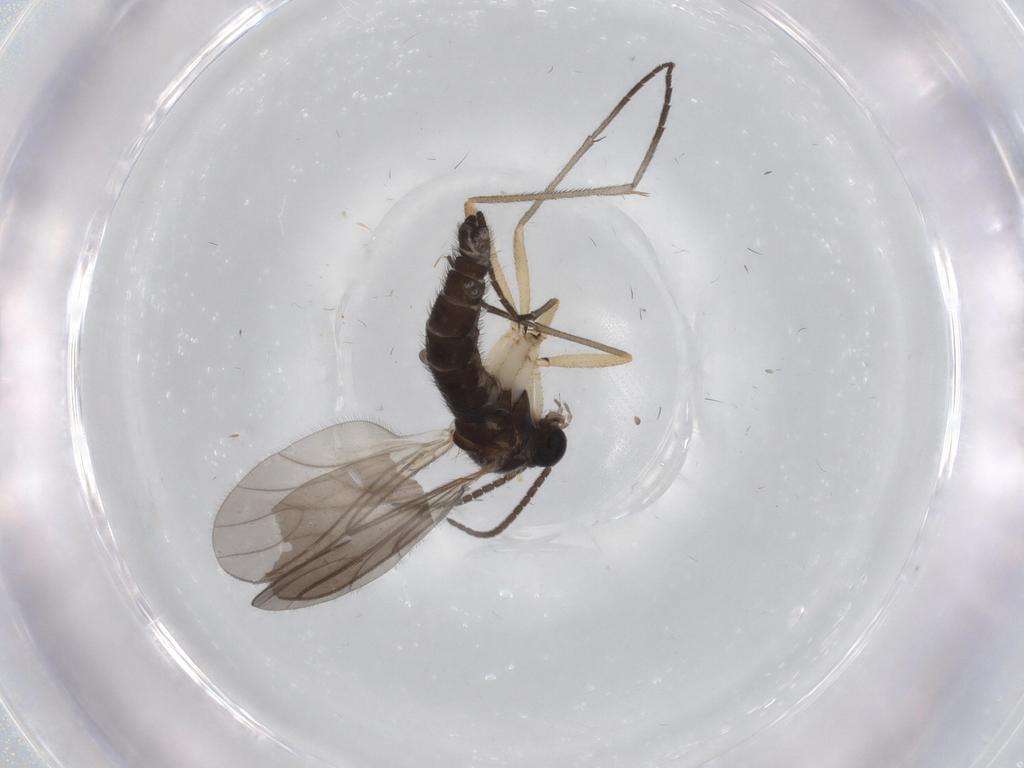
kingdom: Animalia
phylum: Arthropoda
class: Insecta
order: Diptera
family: Sciaridae
